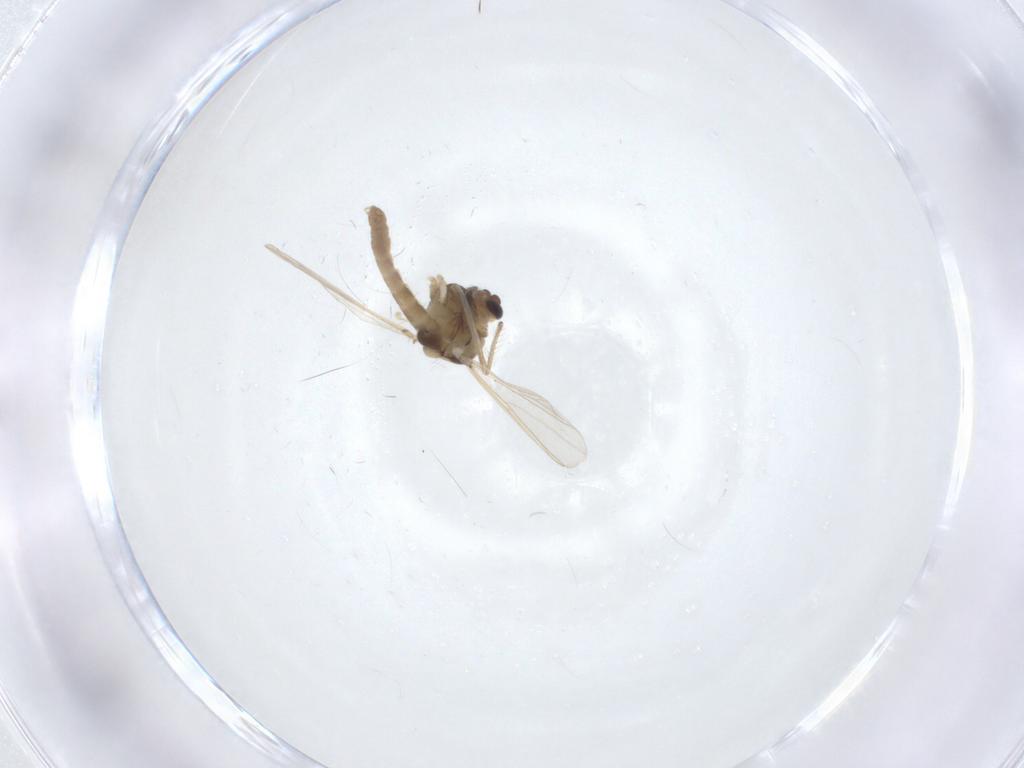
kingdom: Animalia
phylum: Arthropoda
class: Insecta
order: Diptera
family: Chironomidae
